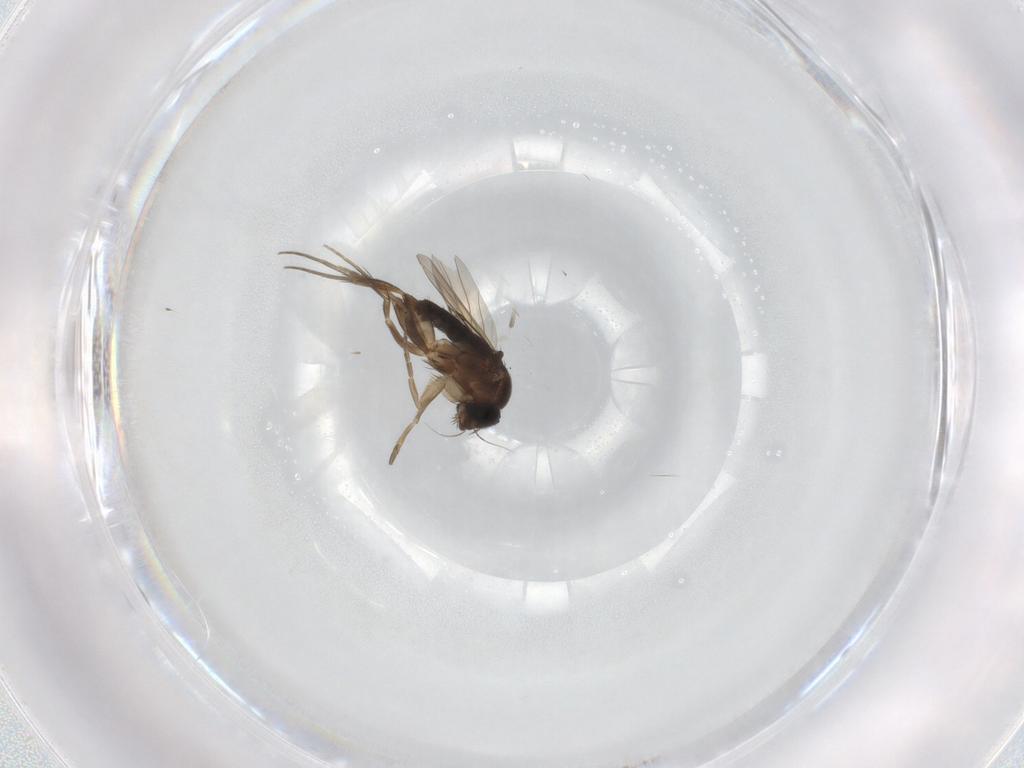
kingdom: Animalia
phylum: Arthropoda
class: Insecta
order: Diptera
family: Phoridae
